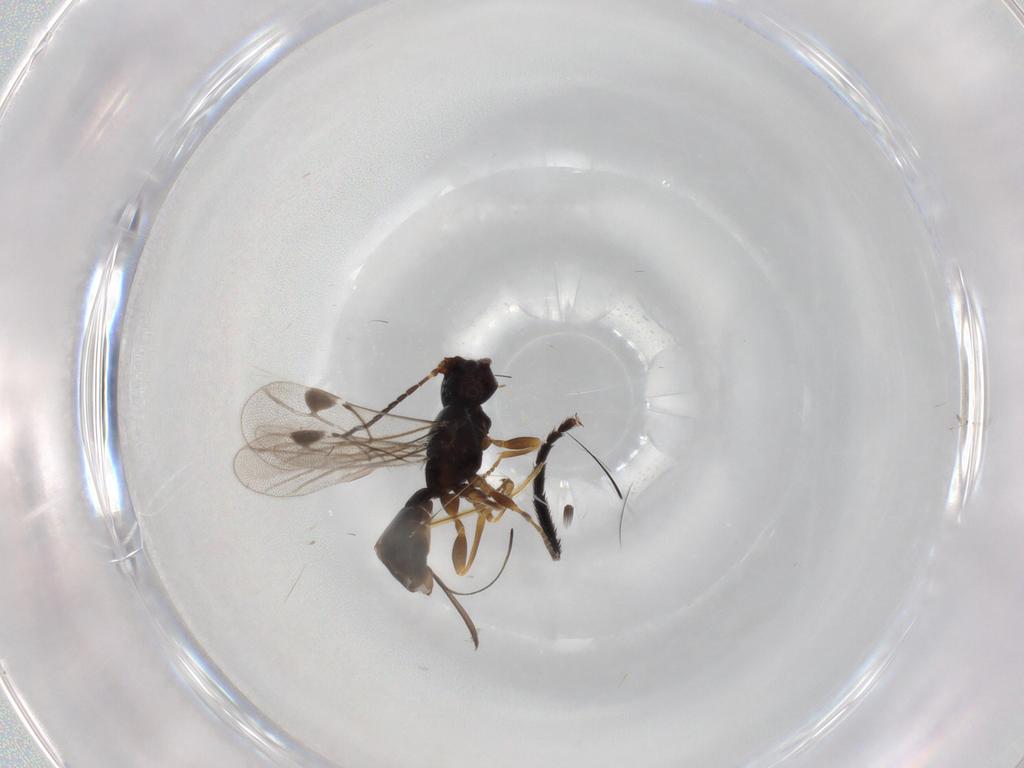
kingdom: Animalia
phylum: Arthropoda
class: Insecta
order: Hymenoptera
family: Braconidae
